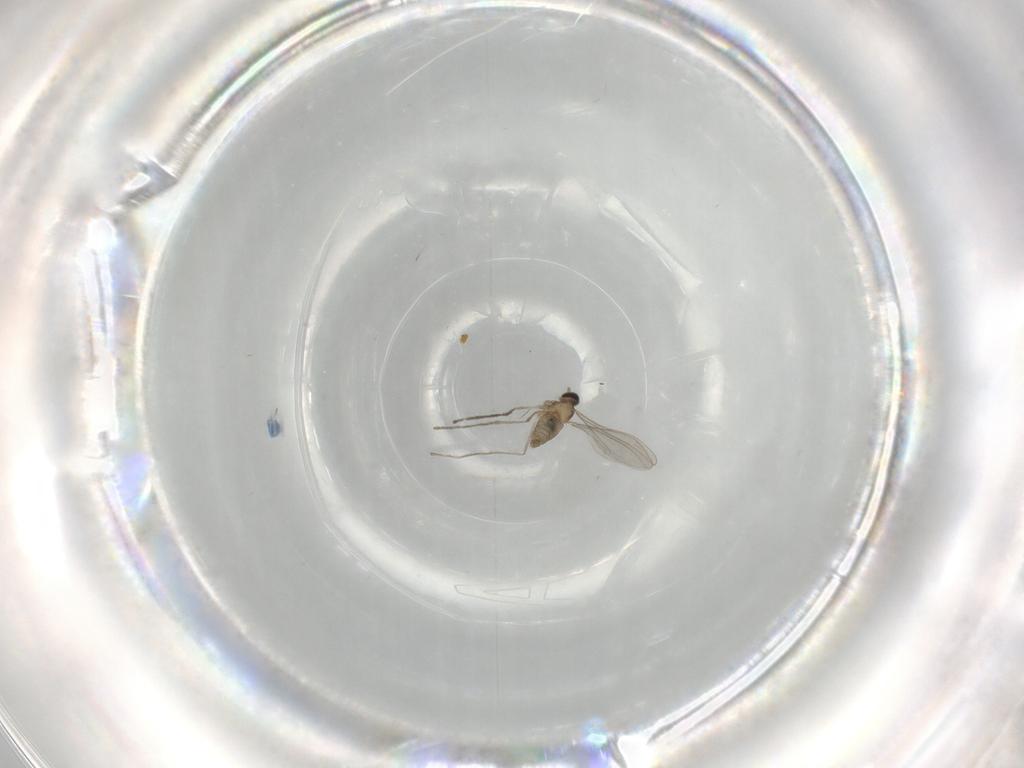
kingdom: Animalia
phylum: Arthropoda
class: Insecta
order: Diptera
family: Cecidomyiidae
